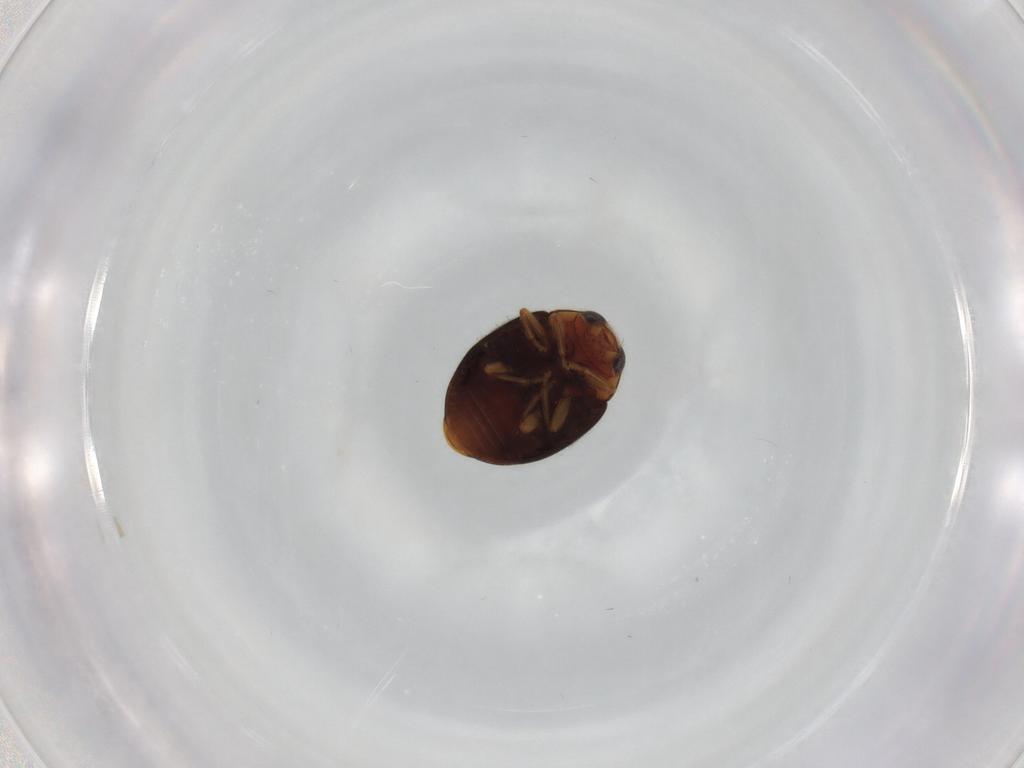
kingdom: Animalia
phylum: Arthropoda
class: Insecta
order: Coleoptera
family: Coccinellidae
